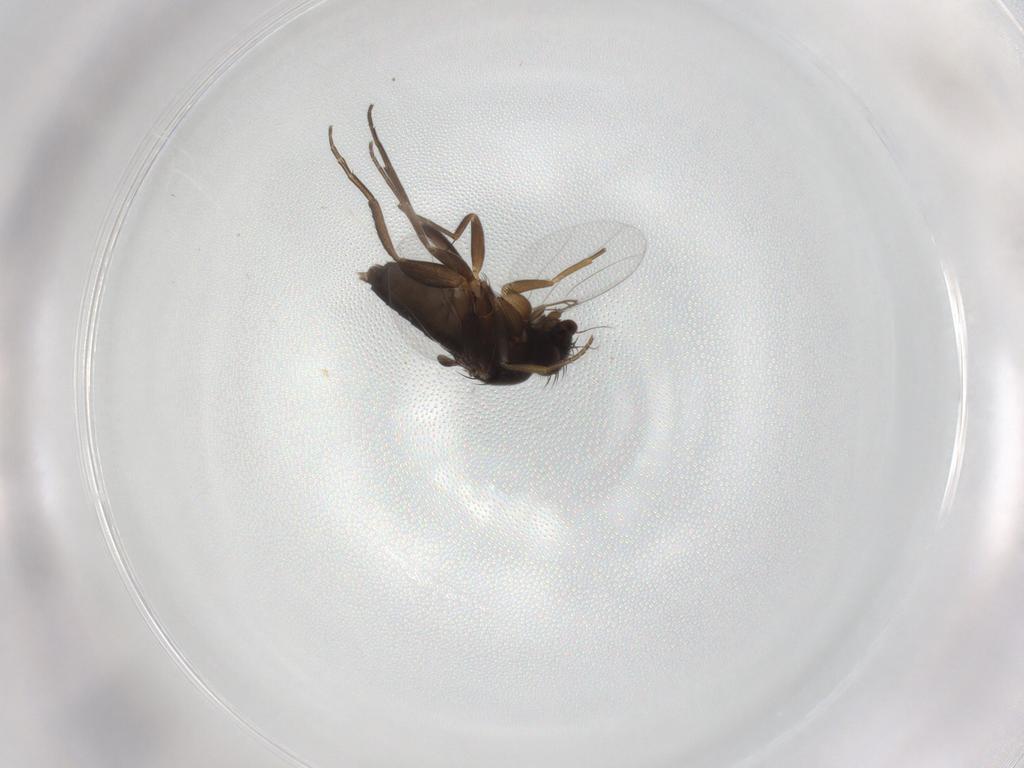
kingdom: Animalia
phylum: Arthropoda
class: Insecta
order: Diptera
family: Phoridae
